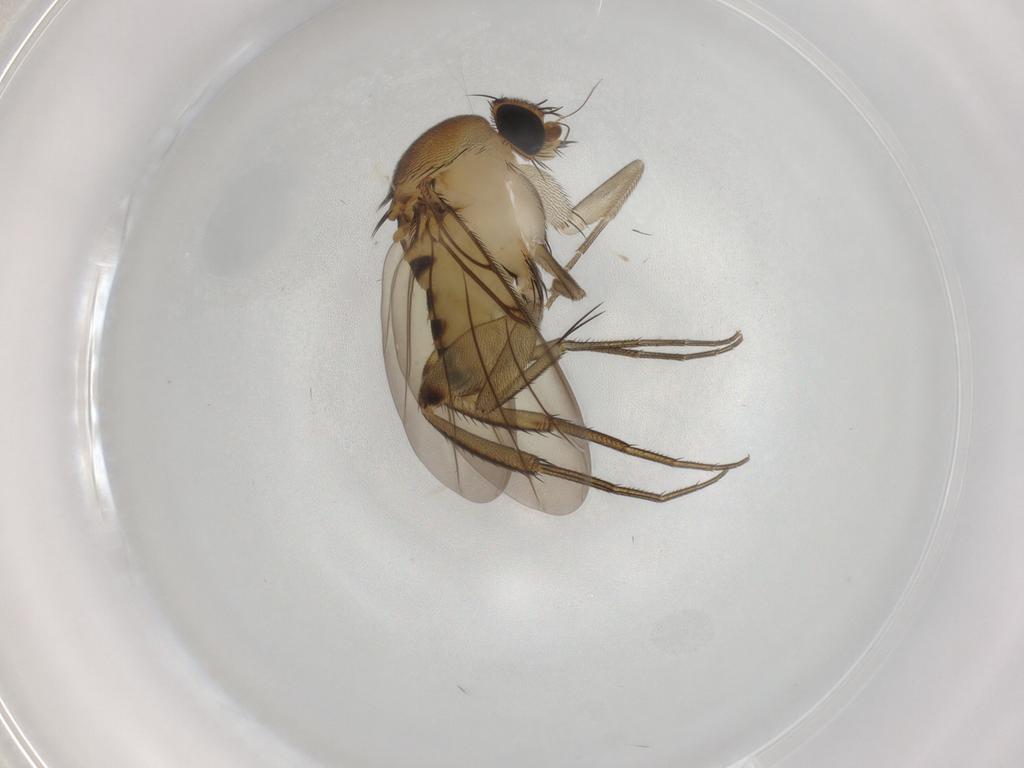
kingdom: Animalia
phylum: Arthropoda
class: Insecta
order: Diptera
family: Phoridae
